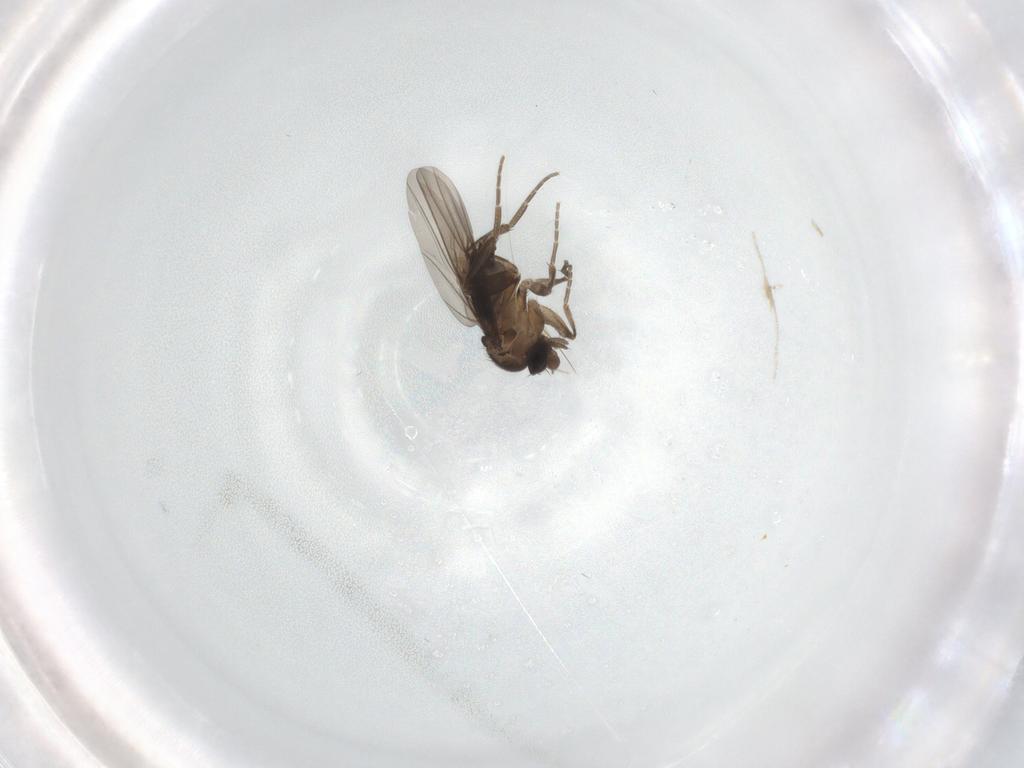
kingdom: Animalia
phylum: Arthropoda
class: Insecta
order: Diptera
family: Phoridae
